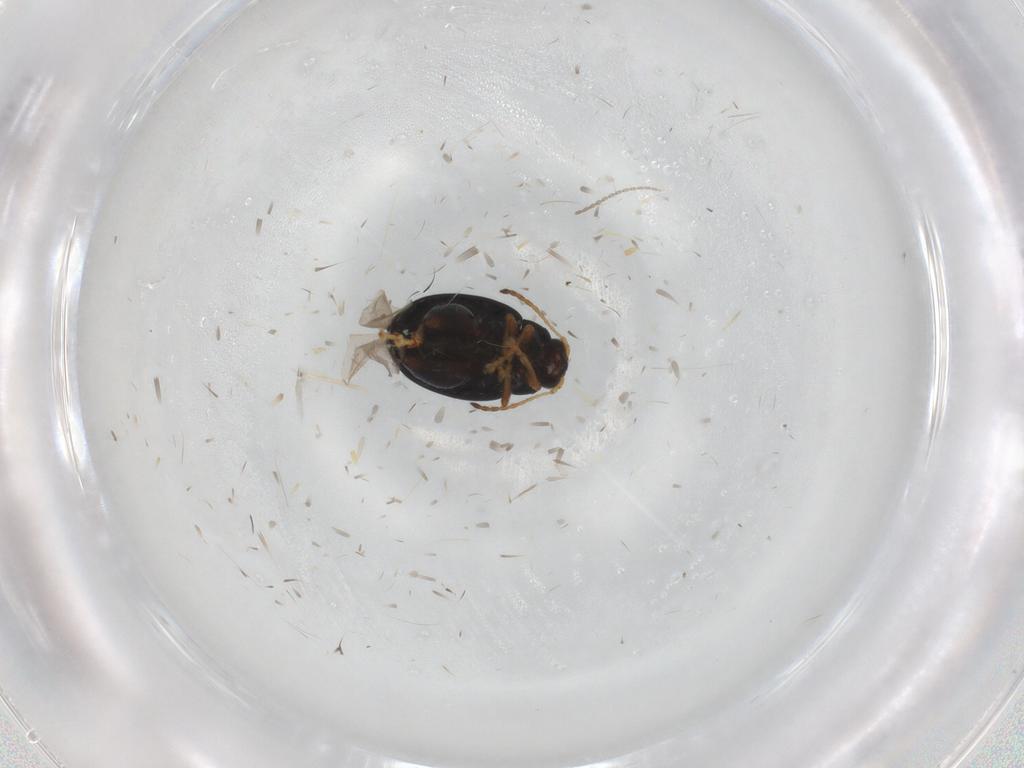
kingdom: Animalia
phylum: Arthropoda
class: Insecta
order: Coleoptera
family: Chrysomelidae
